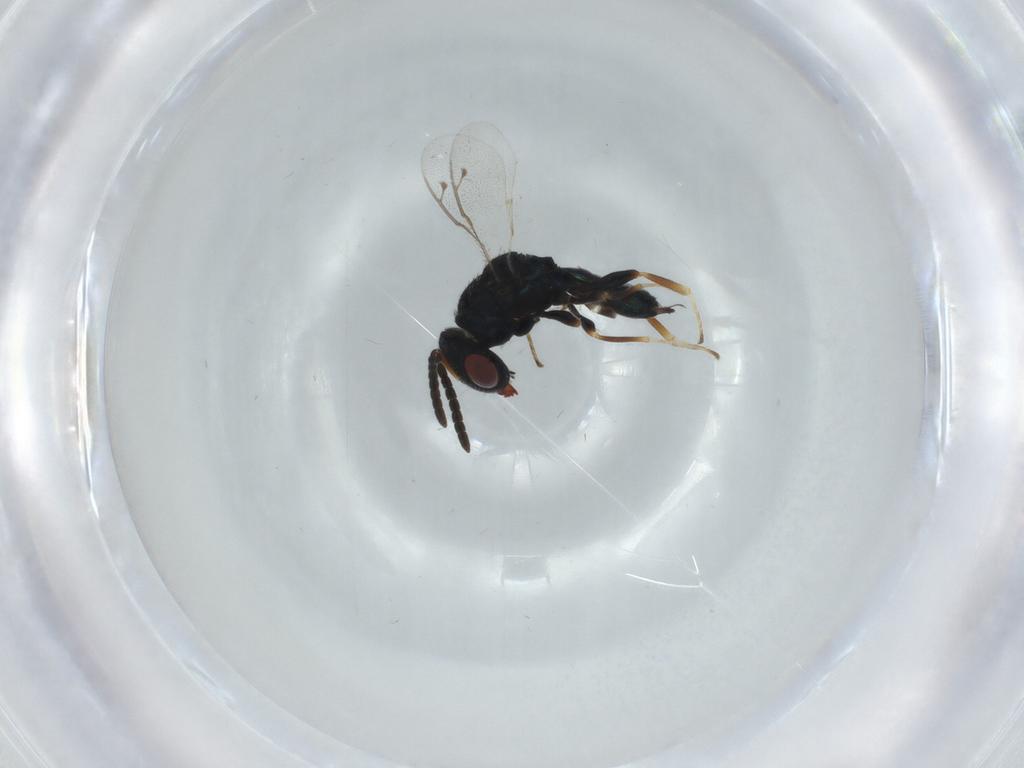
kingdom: Animalia
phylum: Arthropoda
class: Insecta
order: Hymenoptera
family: Pteromalidae
